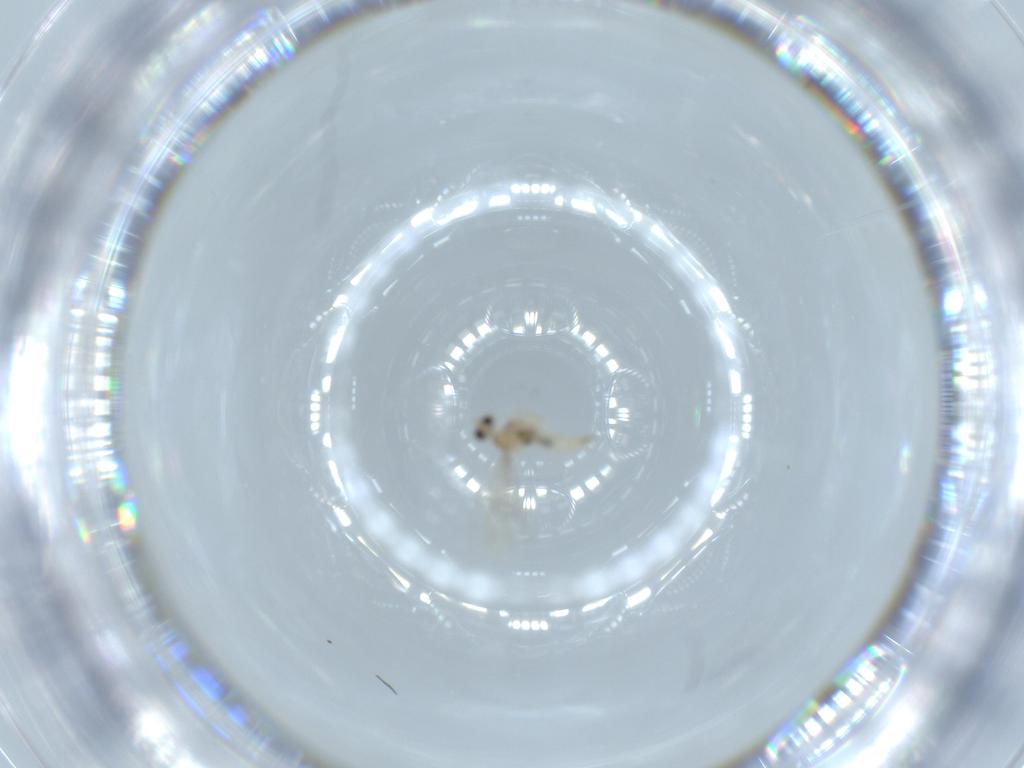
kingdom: Animalia
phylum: Arthropoda
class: Insecta
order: Diptera
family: Cecidomyiidae
